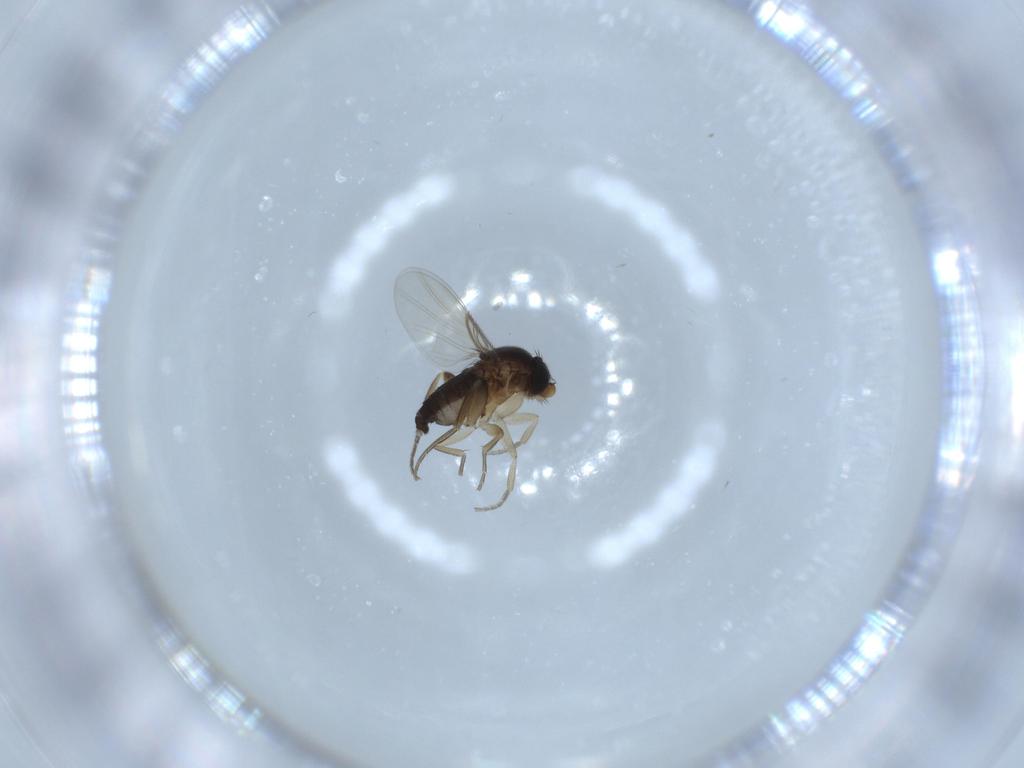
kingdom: Animalia
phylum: Arthropoda
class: Insecta
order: Diptera
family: Phoridae
